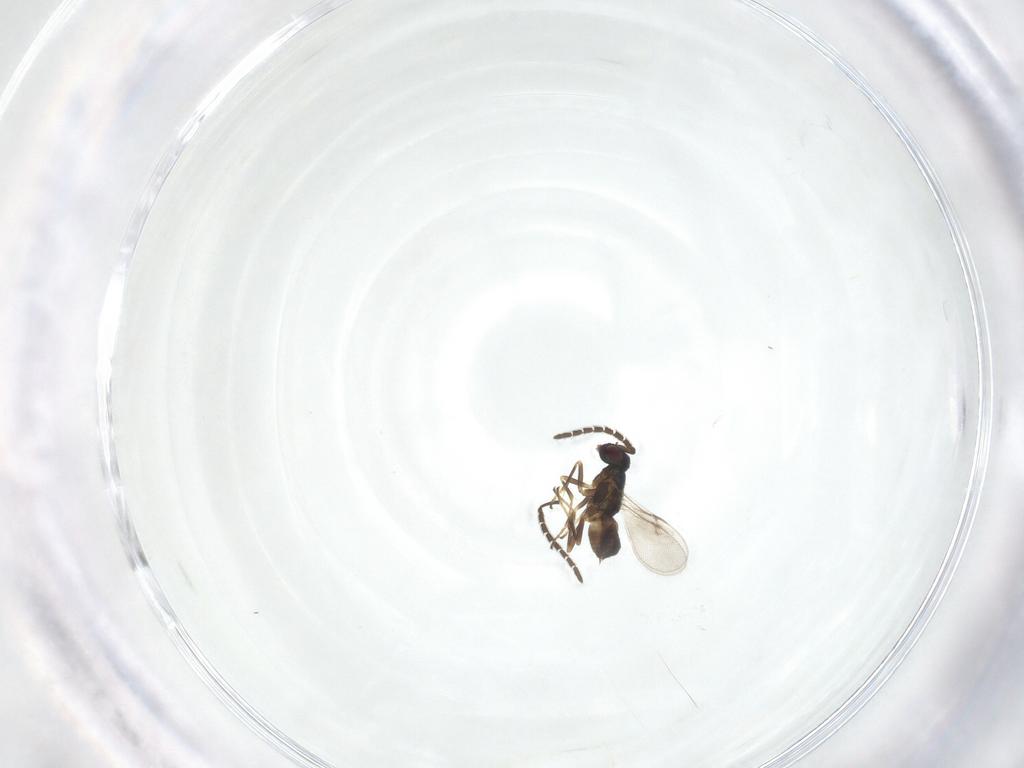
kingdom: Animalia
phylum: Arthropoda
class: Insecta
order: Hymenoptera
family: Encyrtidae
